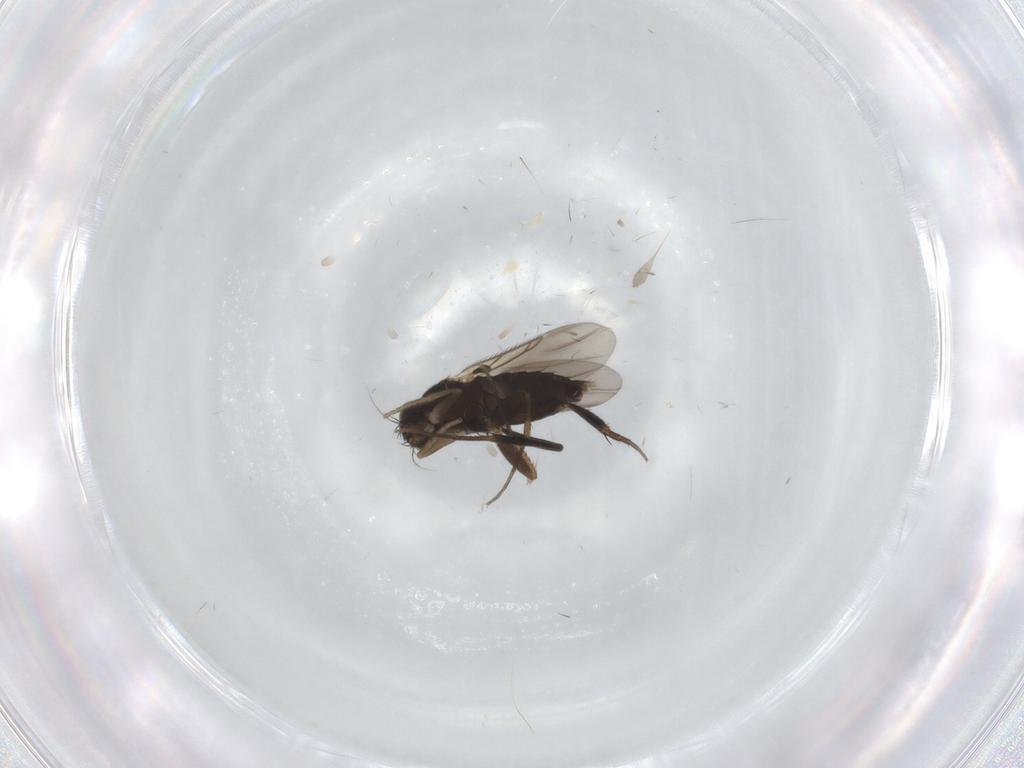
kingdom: Animalia
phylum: Arthropoda
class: Insecta
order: Diptera
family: Phoridae
